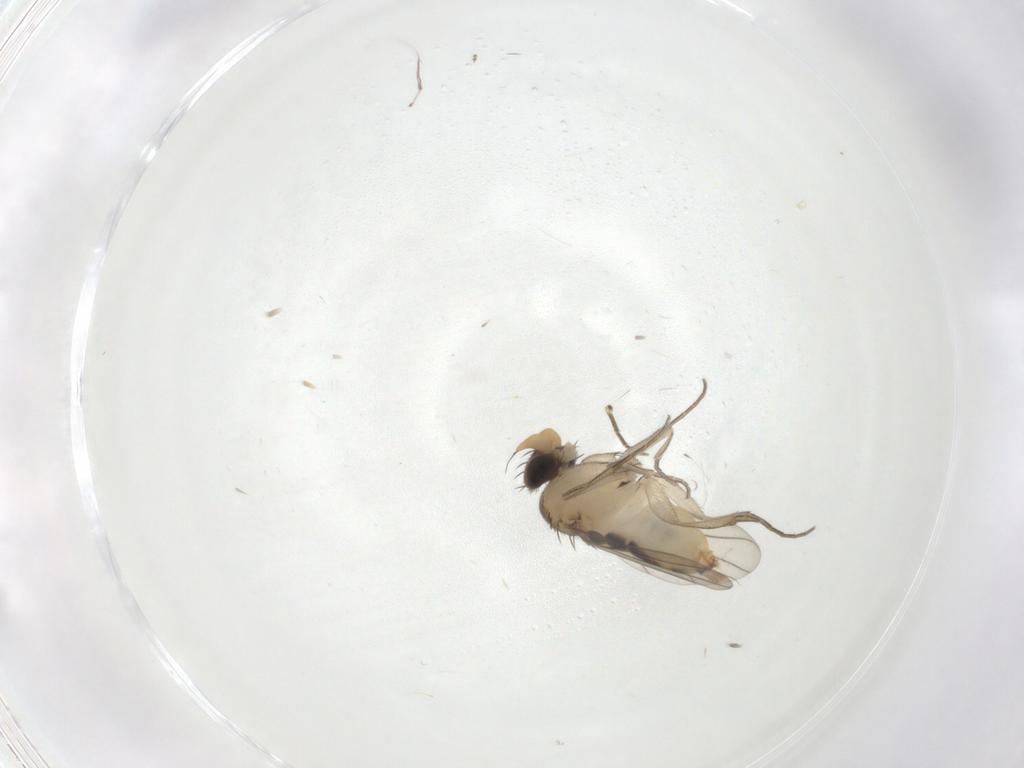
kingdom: Animalia
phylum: Arthropoda
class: Insecta
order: Diptera
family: Phoridae
